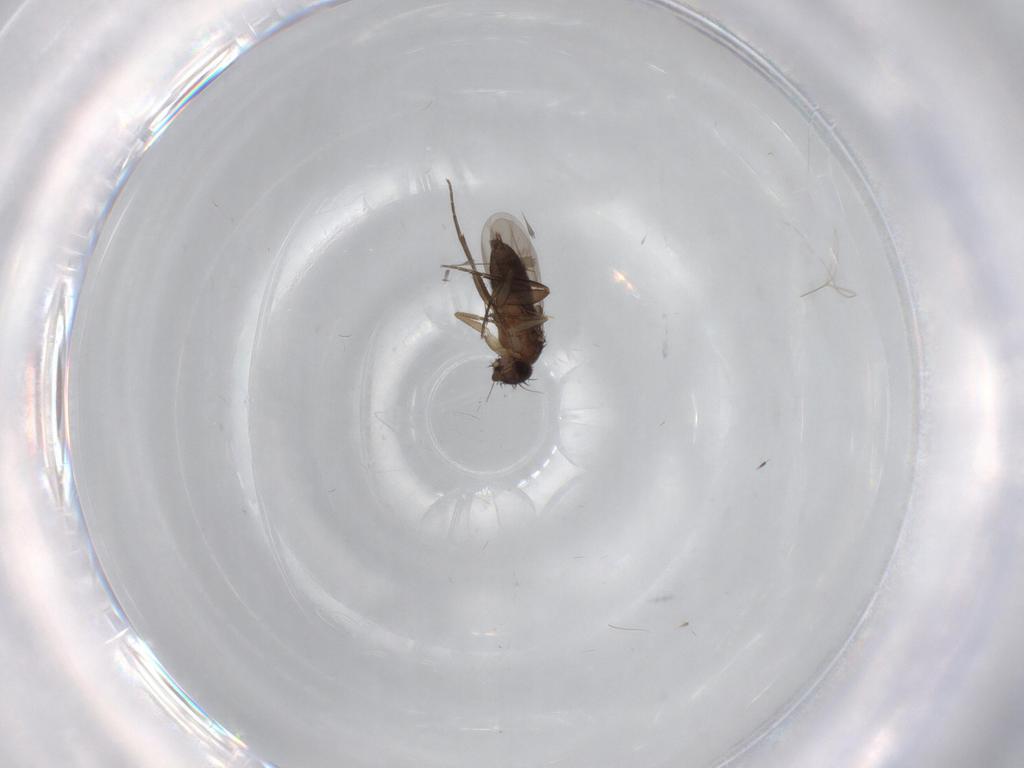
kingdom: Animalia
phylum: Arthropoda
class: Insecta
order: Diptera
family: Phoridae
